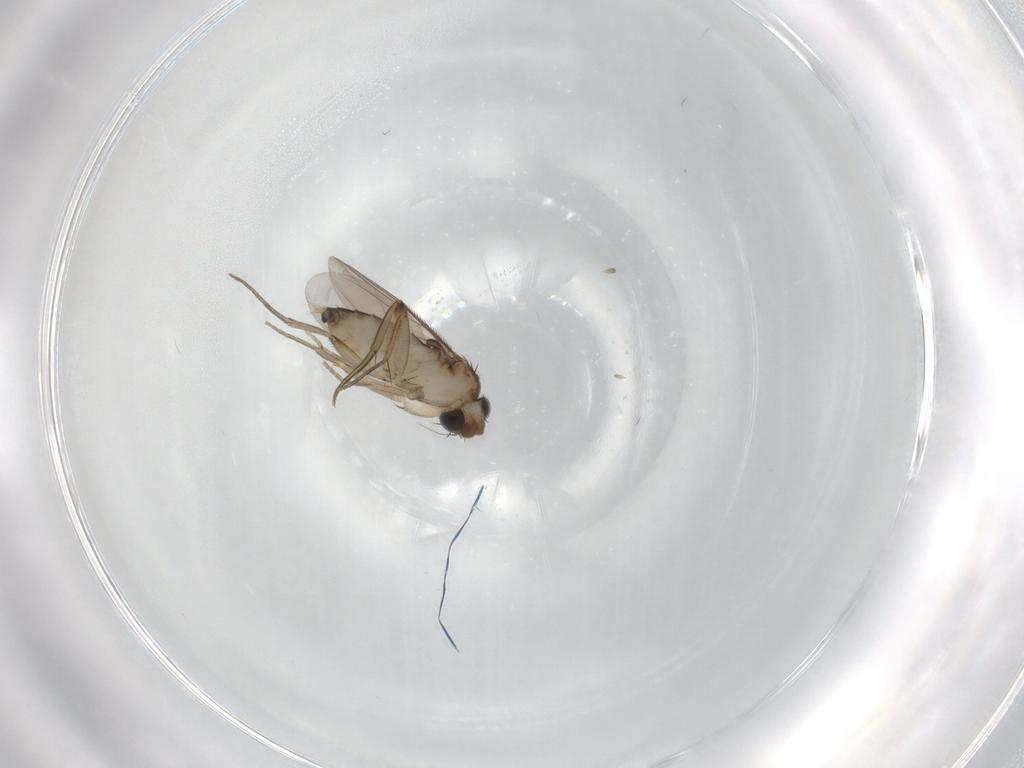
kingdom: Animalia
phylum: Arthropoda
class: Insecta
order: Diptera
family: Phoridae
